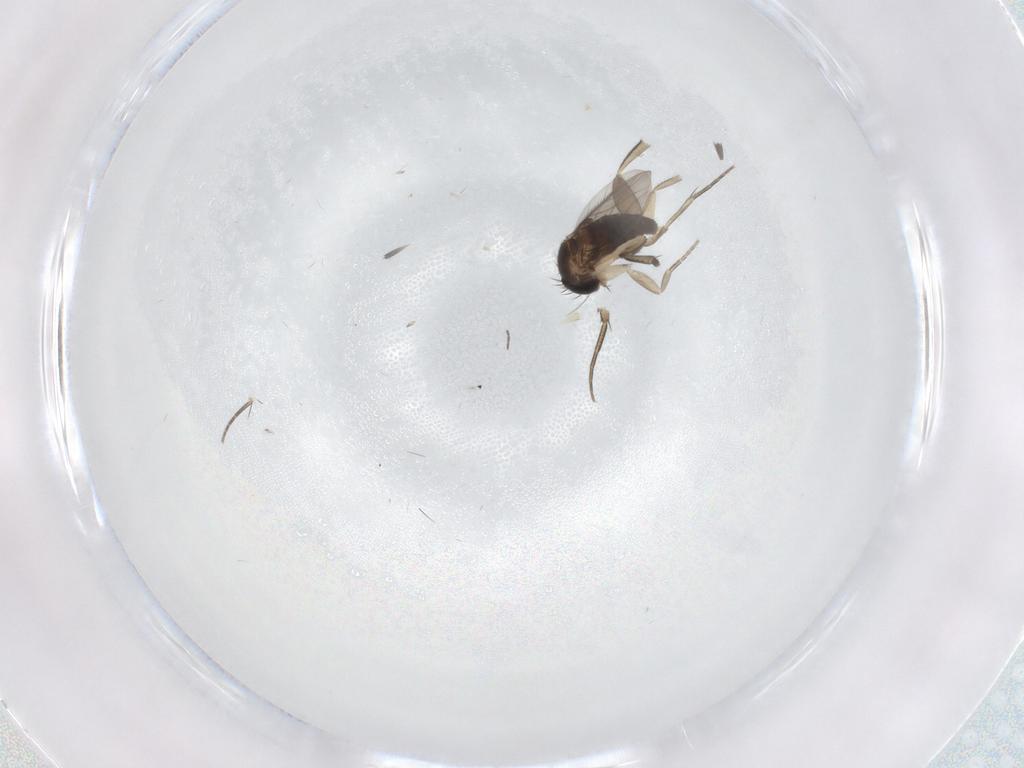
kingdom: Animalia
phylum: Arthropoda
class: Insecta
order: Diptera
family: Phoridae
